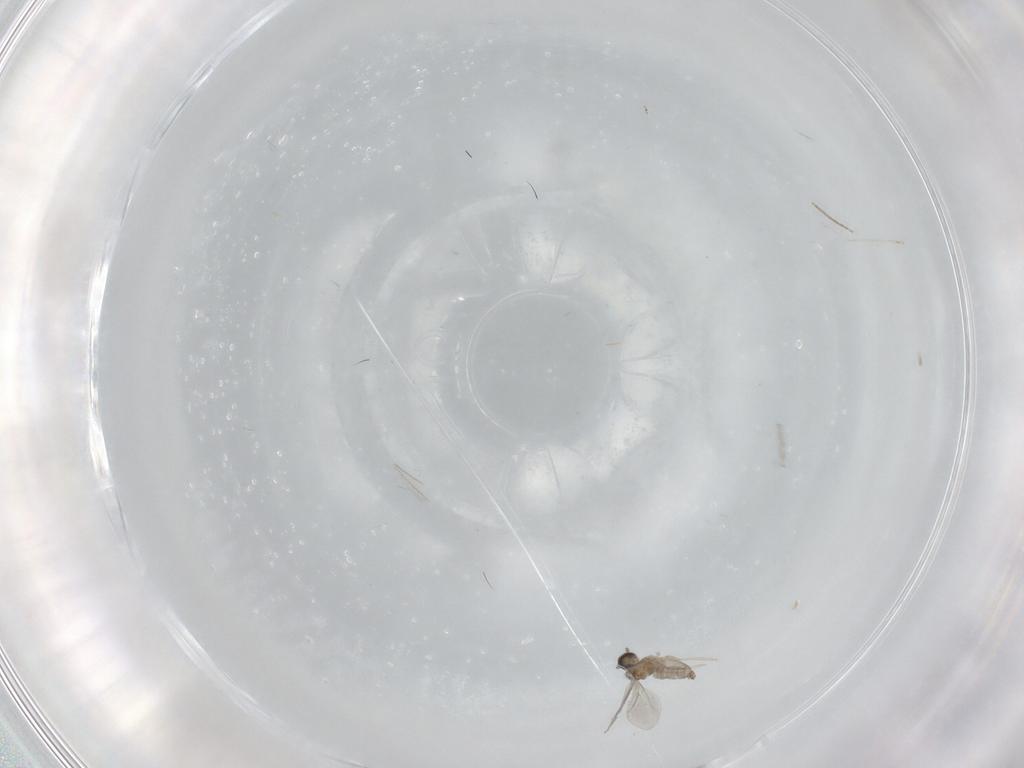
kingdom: Animalia
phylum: Arthropoda
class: Insecta
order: Diptera
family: Cecidomyiidae
